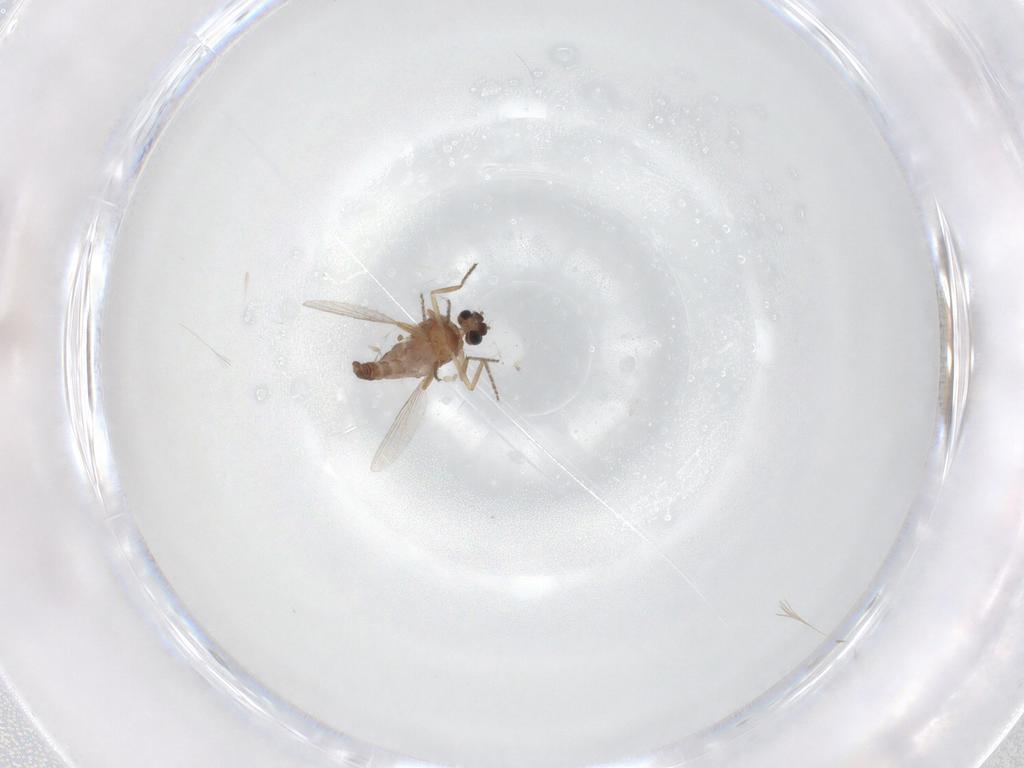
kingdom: Animalia
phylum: Arthropoda
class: Insecta
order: Diptera
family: Ceratopogonidae
